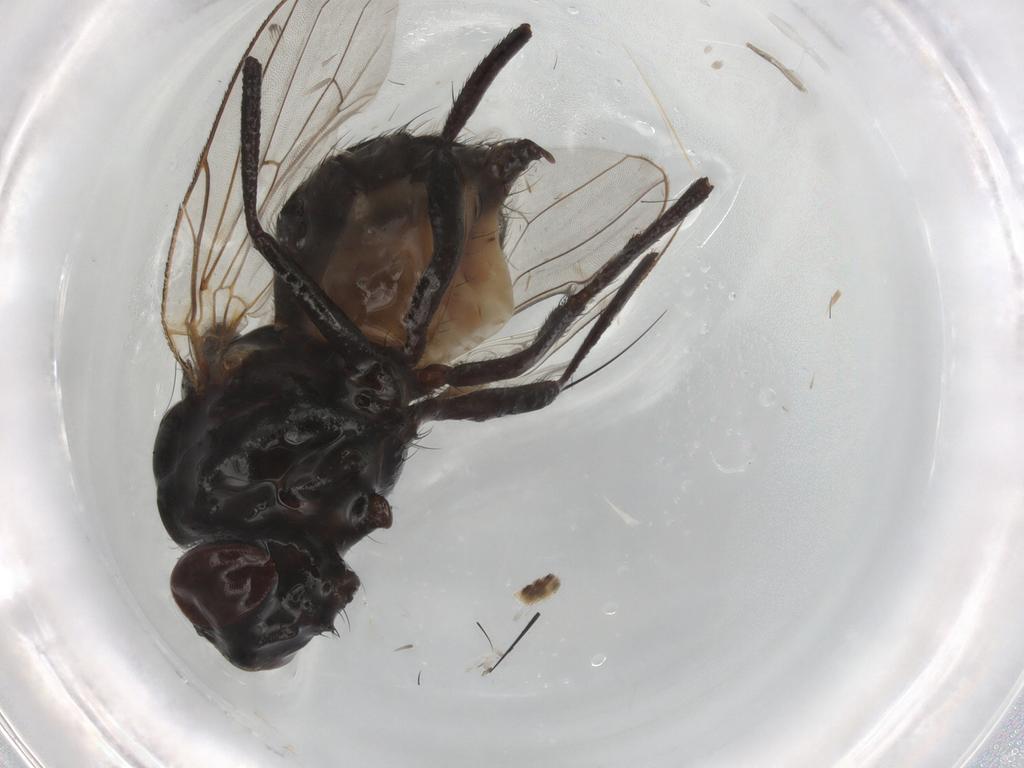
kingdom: Animalia
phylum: Arthropoda
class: Insecta
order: Diptera
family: Anthomyiidae
